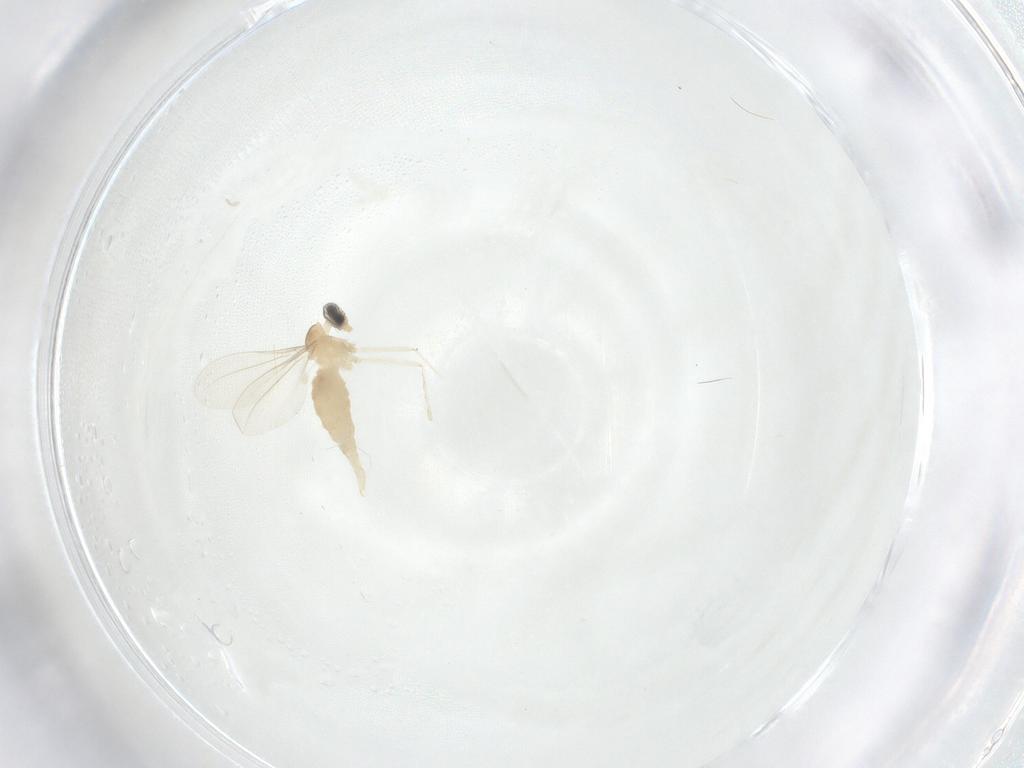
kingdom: Animalia
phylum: Arthropoda
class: Insecta
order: Diptera
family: Cecidomyiidae
